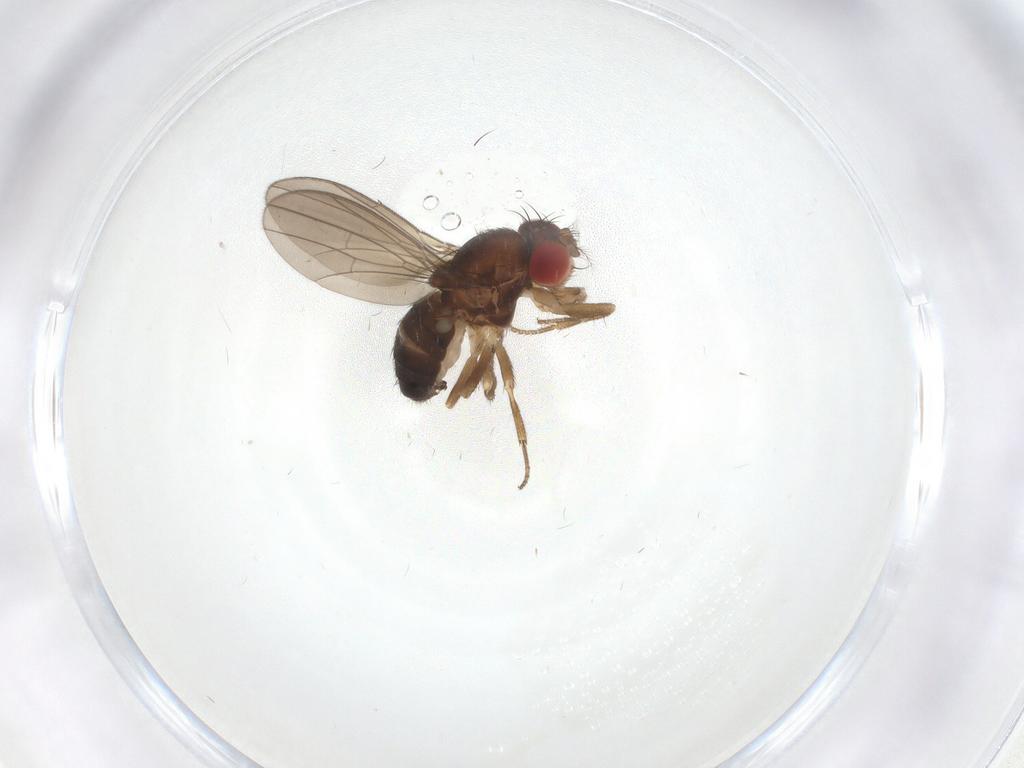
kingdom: Animalia
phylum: Arthropoda
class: Insecta
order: Diptera
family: Drosophilidae
